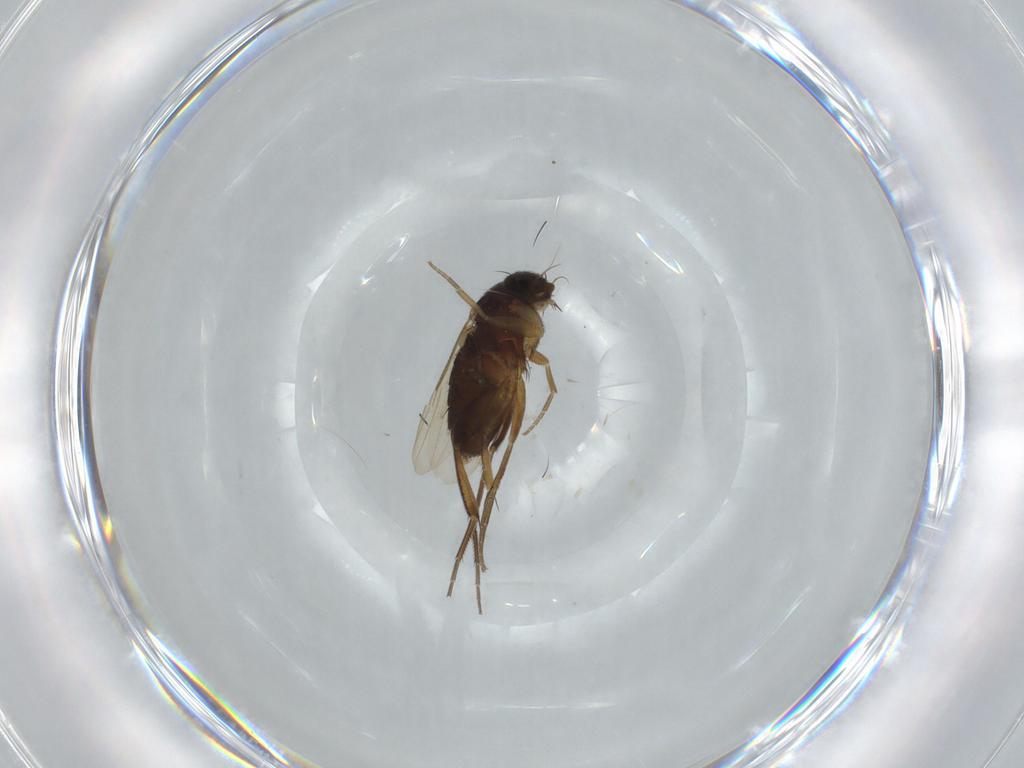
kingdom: Animalia
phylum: Arthropoda
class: Insecta
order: Diptera
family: Phoridae
